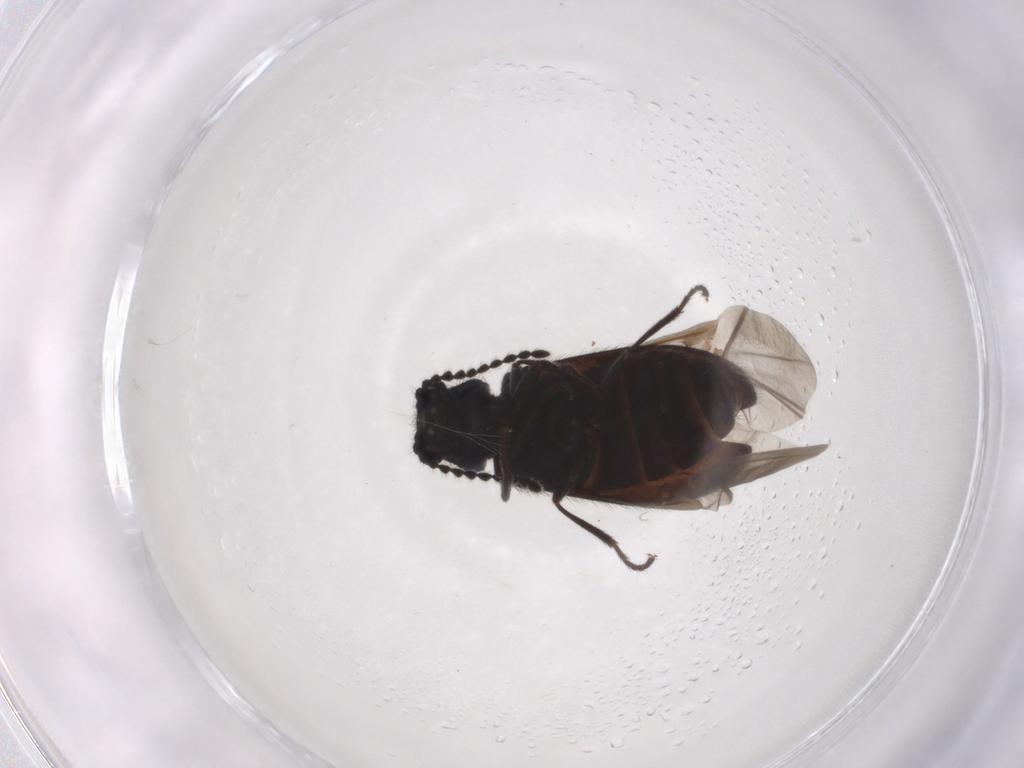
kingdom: Animalia
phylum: Arthropoda
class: Insecta
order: Coleoptera
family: Melyridae
